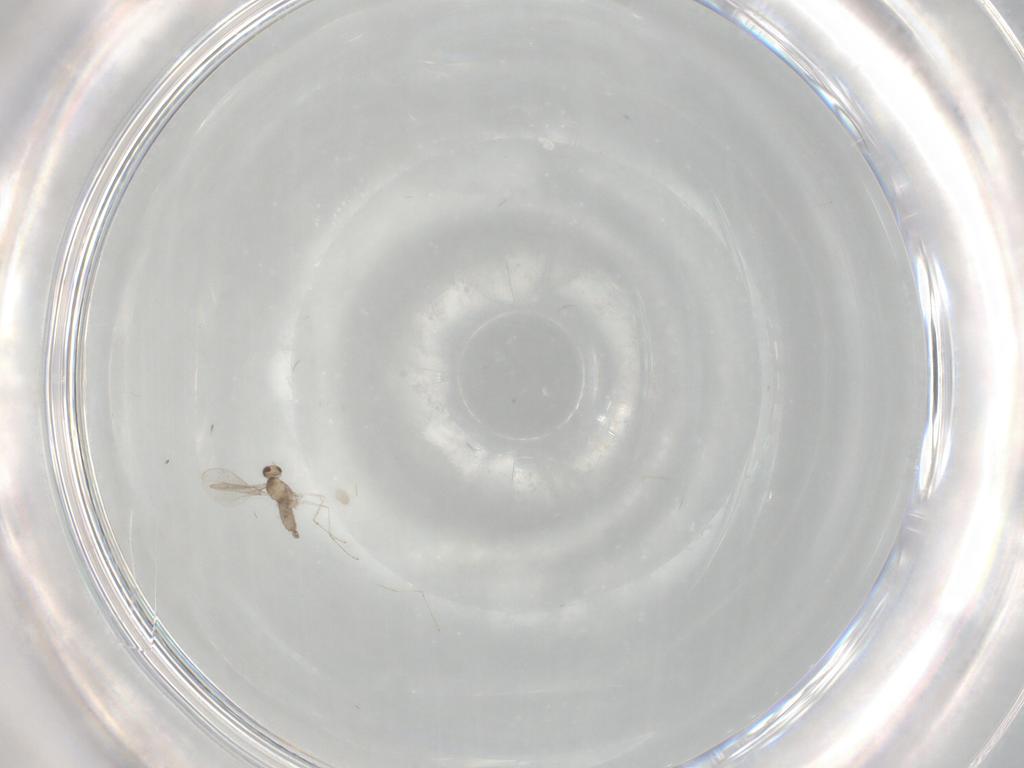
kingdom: Animalia
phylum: Arthropoda
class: Insecta
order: Diptera
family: Cecidomyiidae
